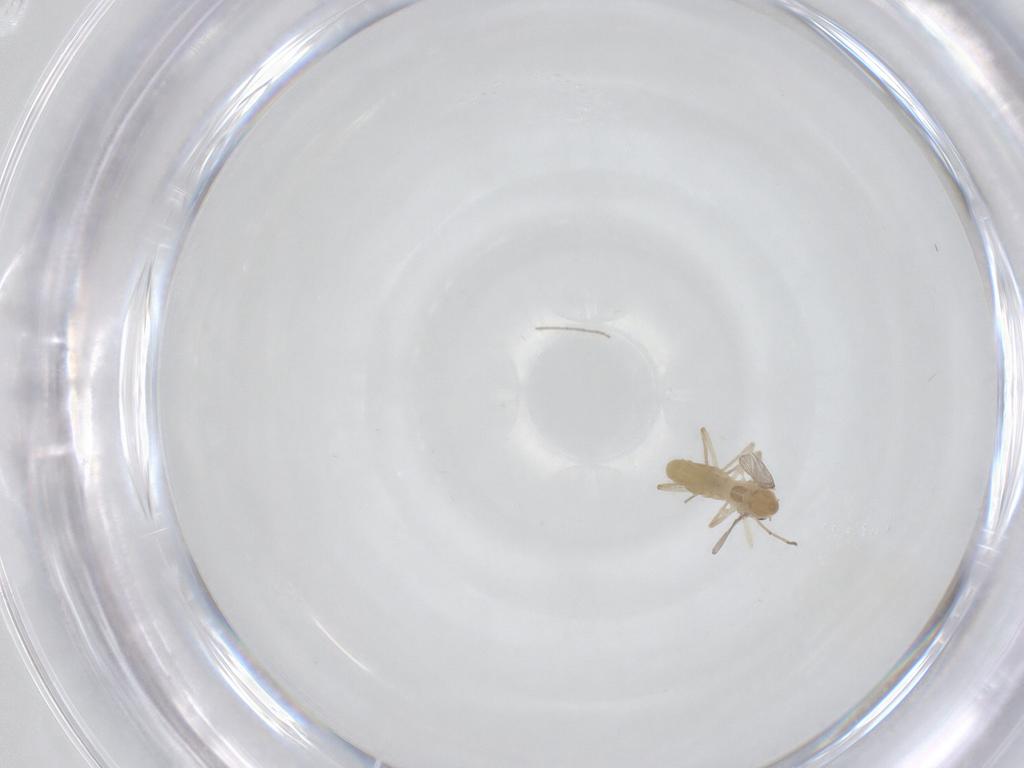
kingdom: Animalia
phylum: Arthropoda
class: Insecta
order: Diptera
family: Chironomidae
